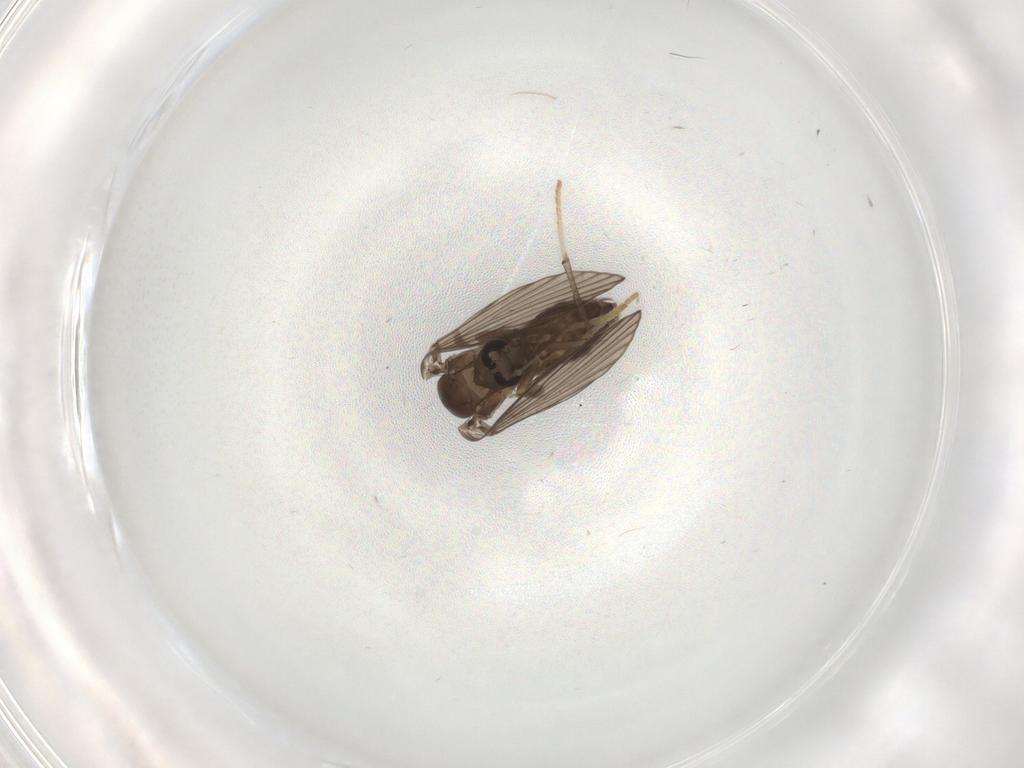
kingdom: Animalia
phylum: Arthropoda
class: Insecta
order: Diptera
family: Psychodidae
